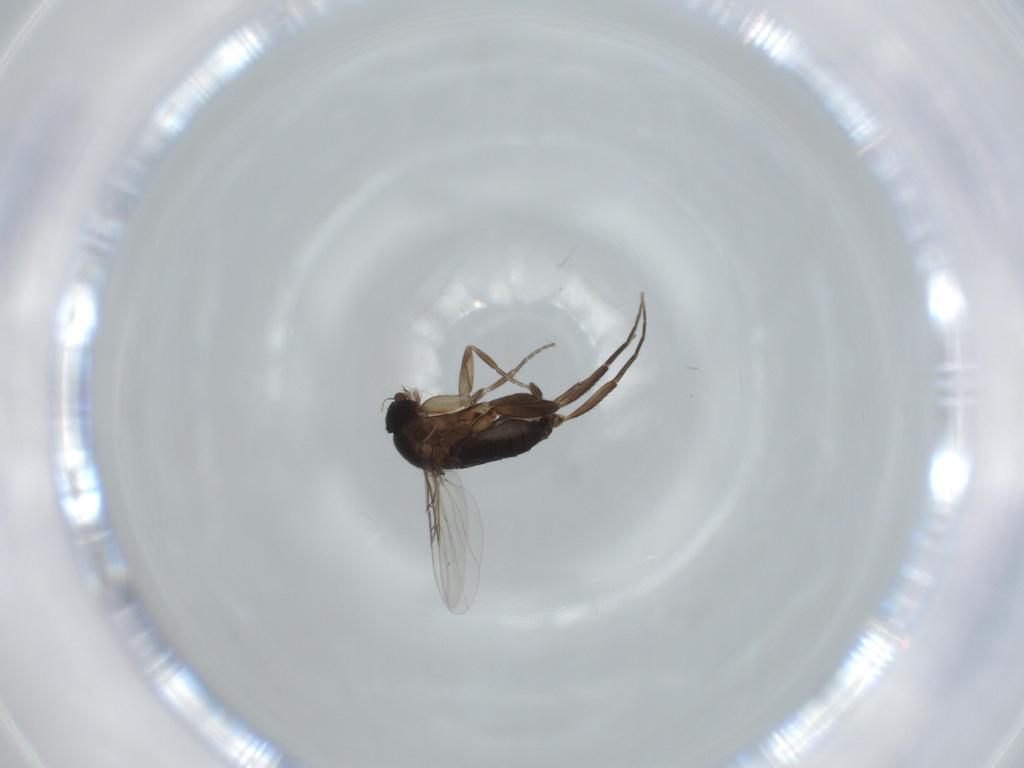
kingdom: Animalia
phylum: Arthropoda
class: Insecta
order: Diptera
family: Phoridae
